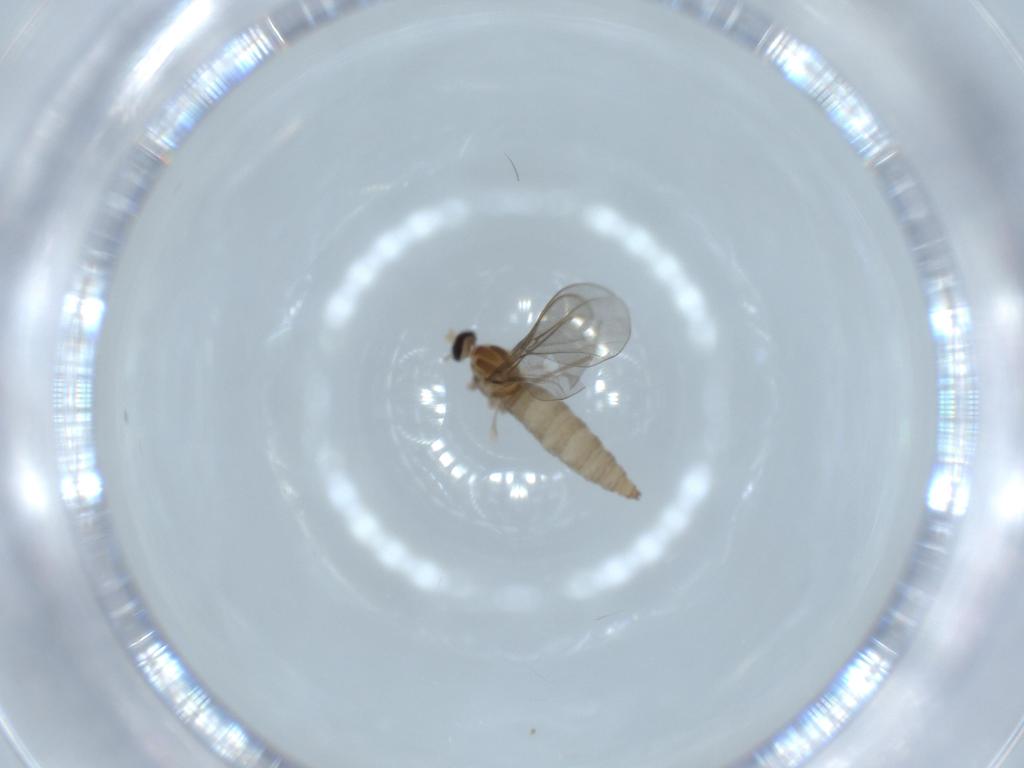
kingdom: Animalia
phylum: Arthropoda
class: Insecta
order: Diptera
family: Cecidomyiidae
